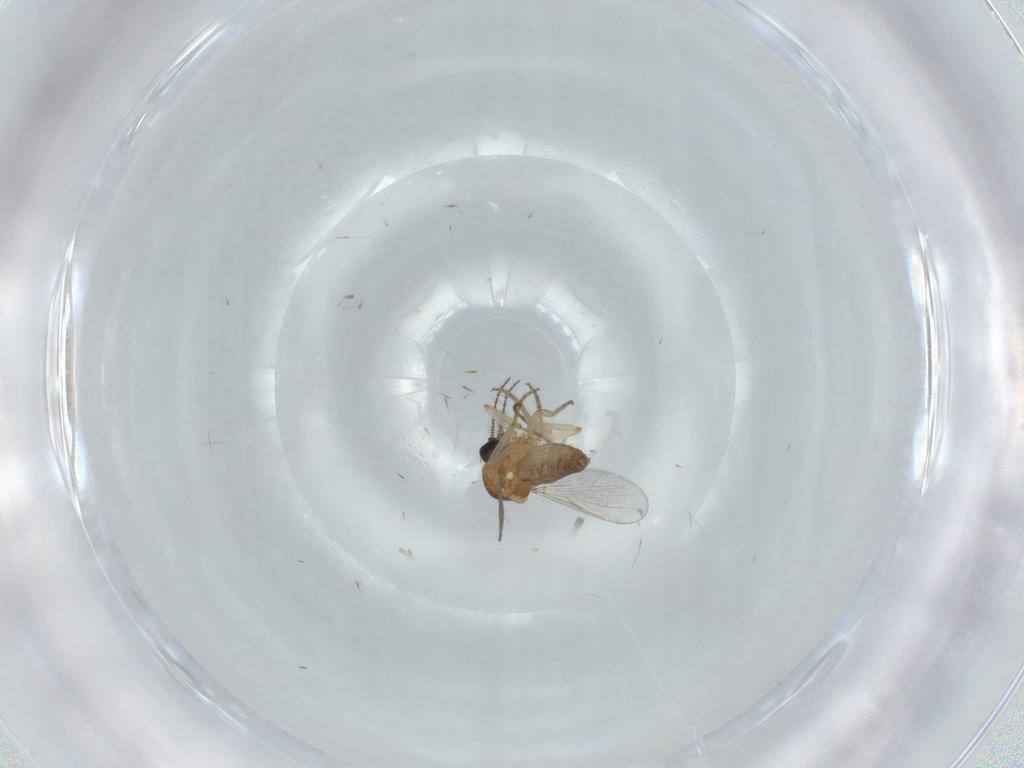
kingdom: Animalia
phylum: Arthropoda
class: Insecta
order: Diptera
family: Ceratopogonidae
